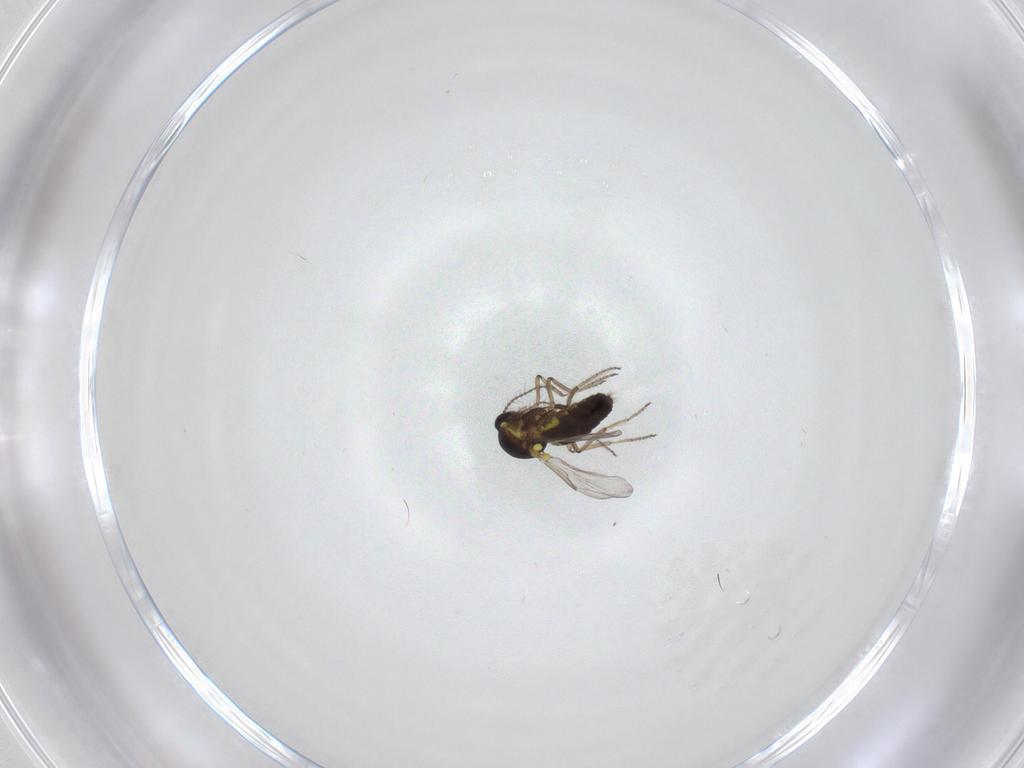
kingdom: Animalia
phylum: Arthropoda
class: Insecta
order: Diptera
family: Ceratopogonidae
